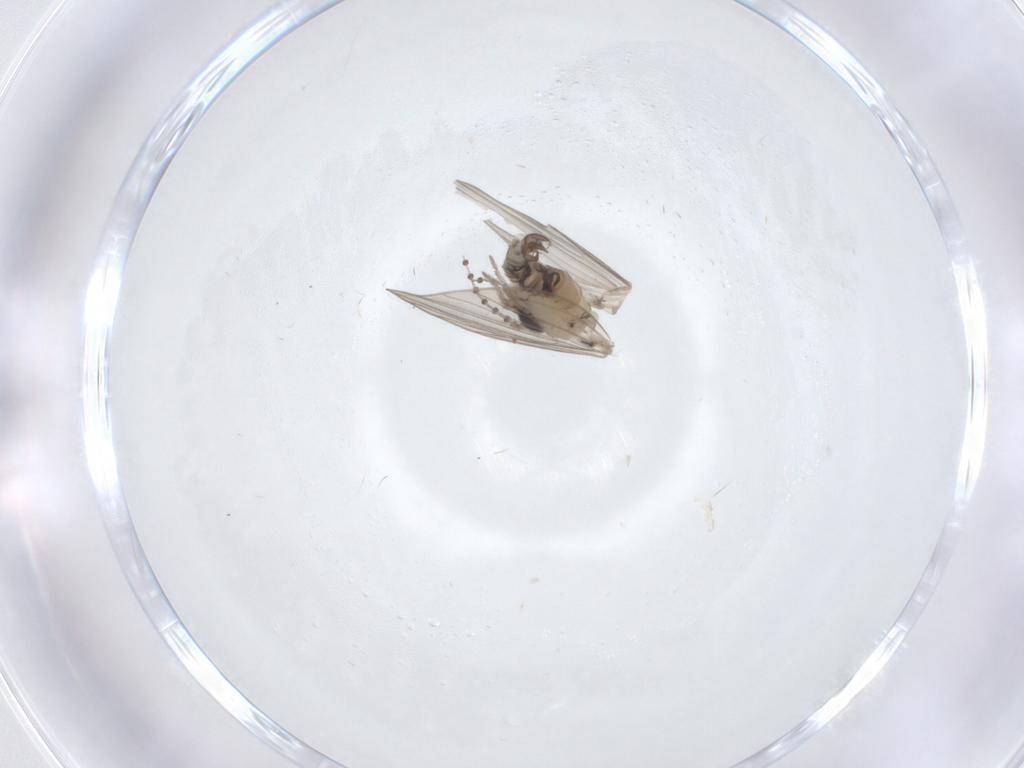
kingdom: Animalia
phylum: Arthropoda
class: Insecta
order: Diptera
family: Psychodidae
